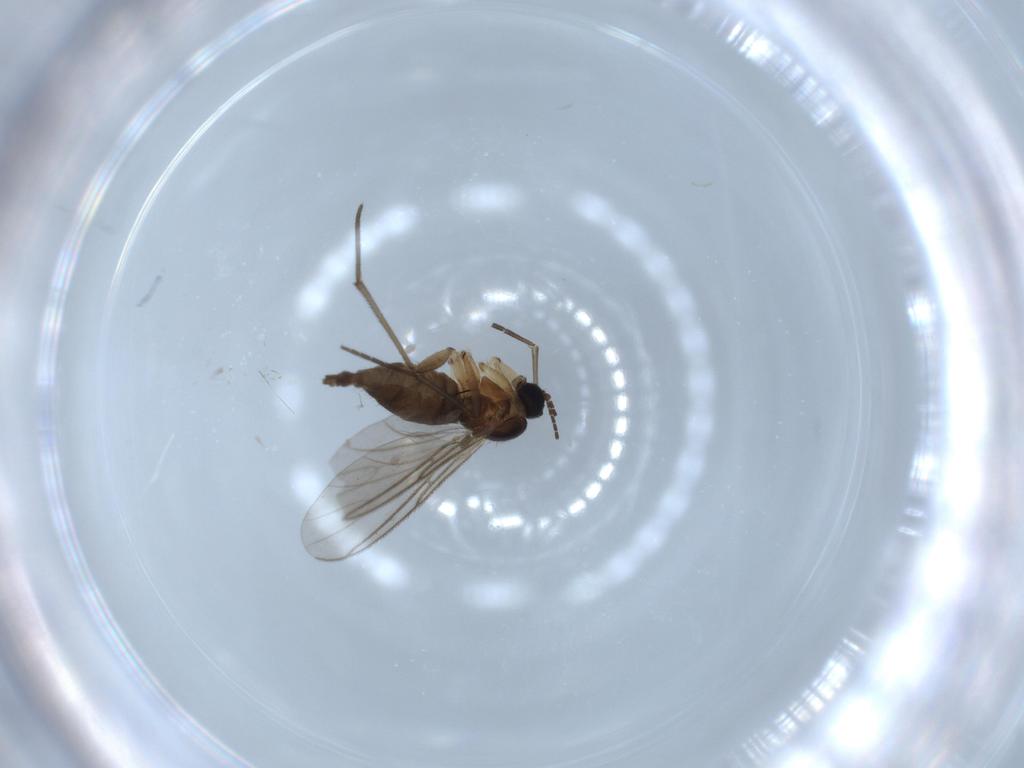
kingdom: Animalia
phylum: Arthropoda
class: Insecta
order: Diptera
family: Sciaridae
